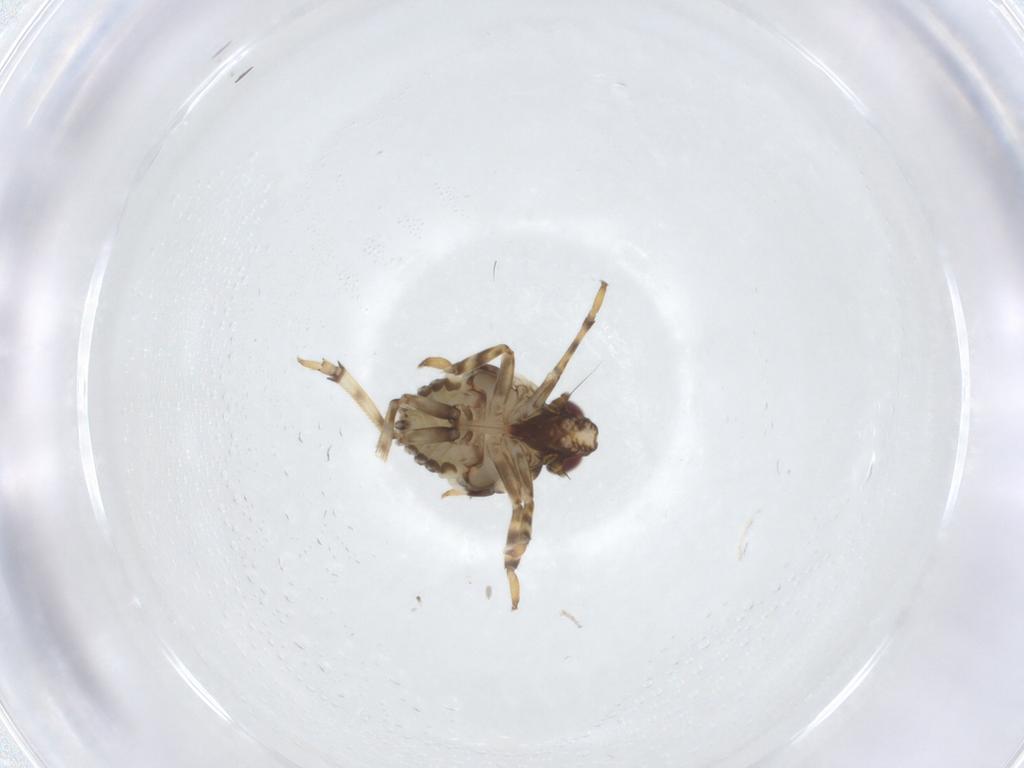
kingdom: Animalia
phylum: Arthropoda
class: Insecta
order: Hemiptera
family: Issidae
